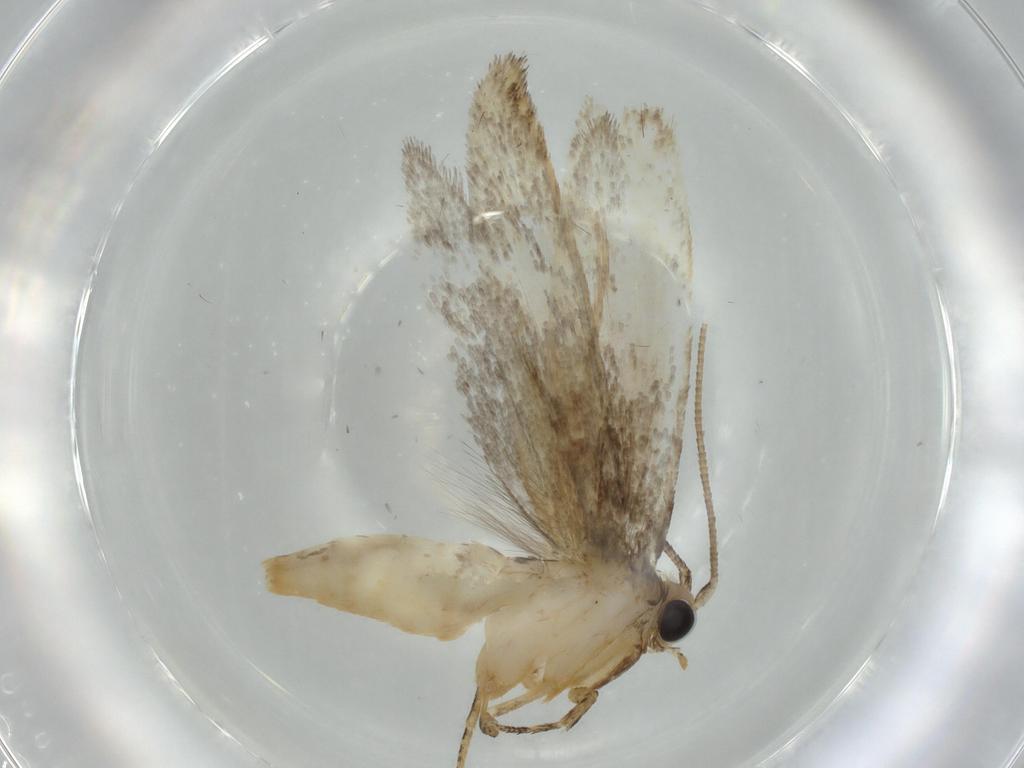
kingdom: Animalia
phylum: Arthropoda
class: Insecta
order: Lepidoptera
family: Tineidae
